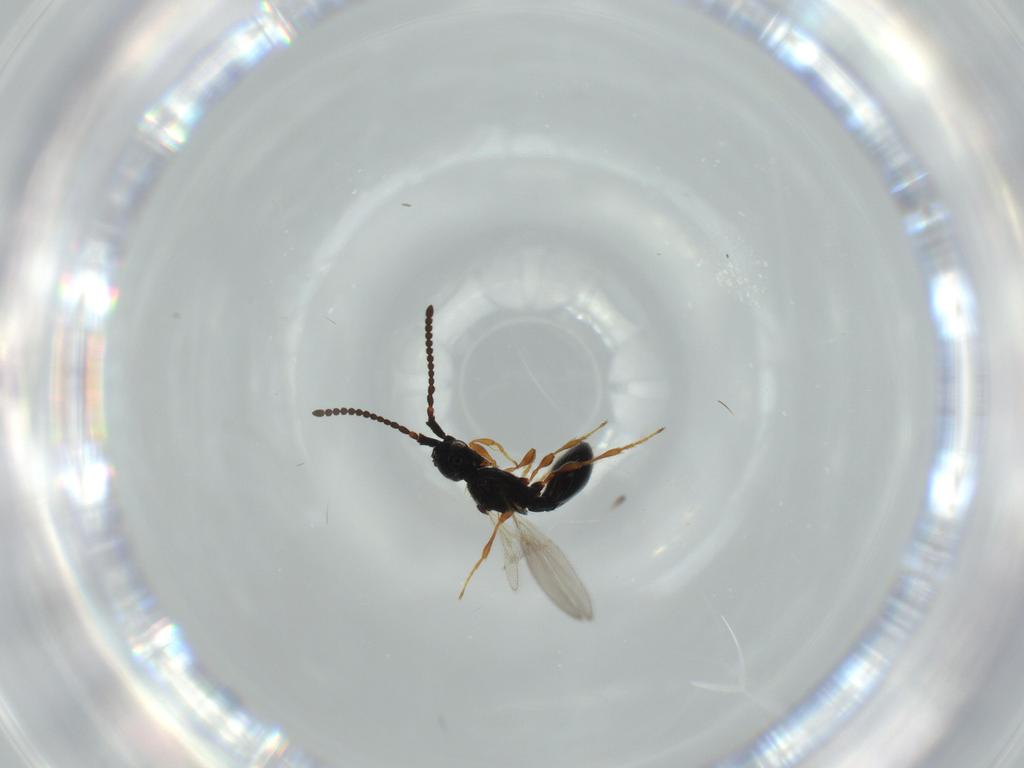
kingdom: Animalia
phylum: Arthropoda
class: Insecta
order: Hymenoptera
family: Diapriidae
